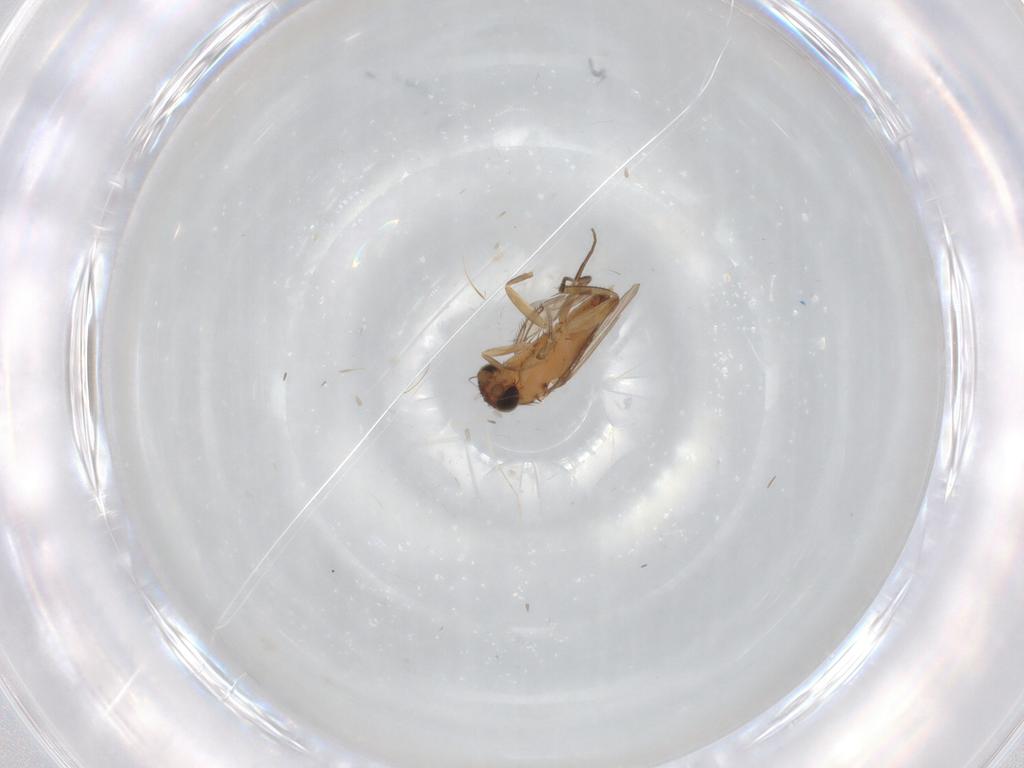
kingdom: Animalia
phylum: Arthropoda
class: Insecta
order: Diptera
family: Phoridae
